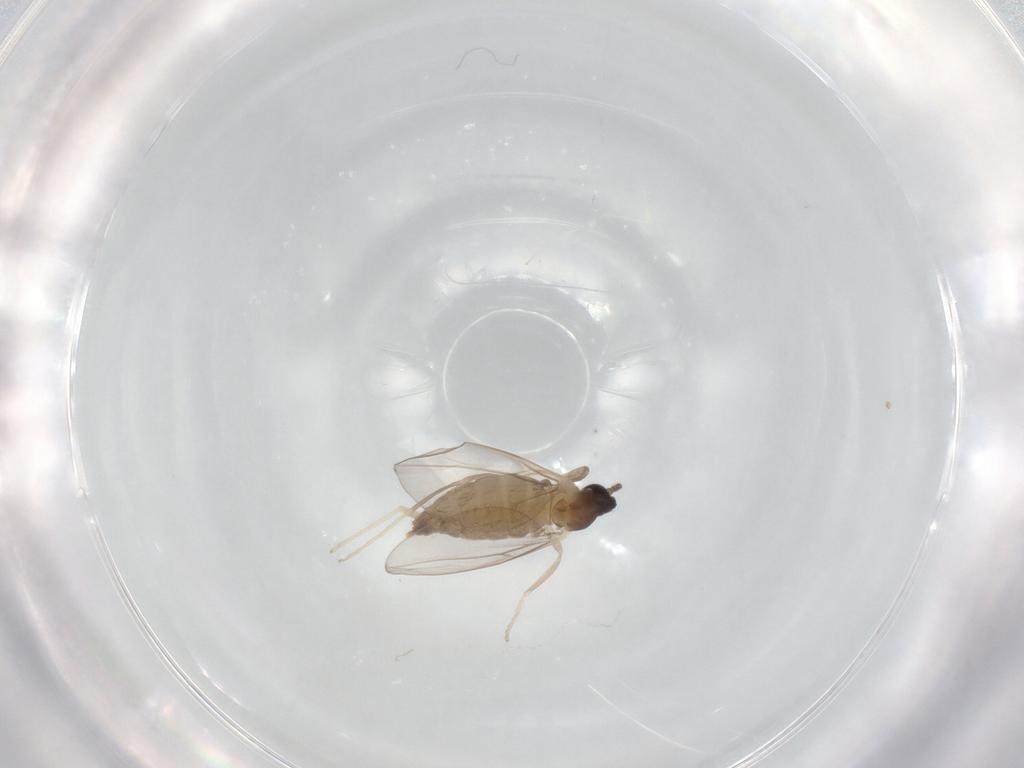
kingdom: Animalia
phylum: Arthropoda
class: Insecta
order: Diptera
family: Cecidomyiidae
